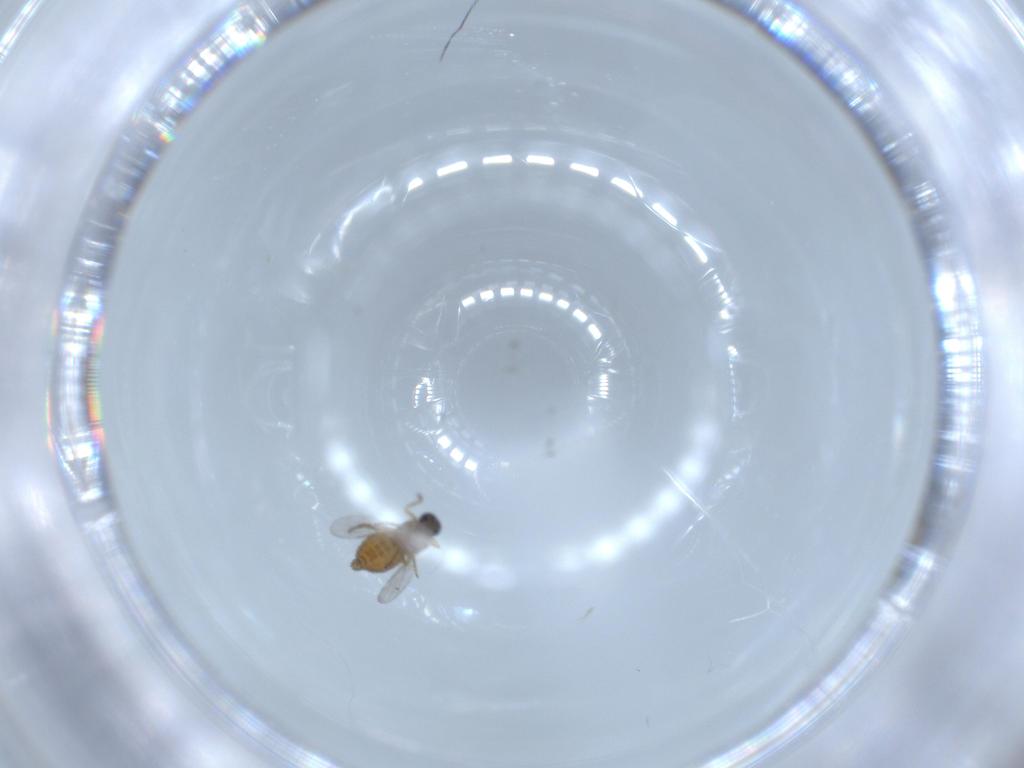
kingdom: Animalia
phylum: Arthropoda
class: Insecta
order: Diptera
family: Ceratopogonidae
